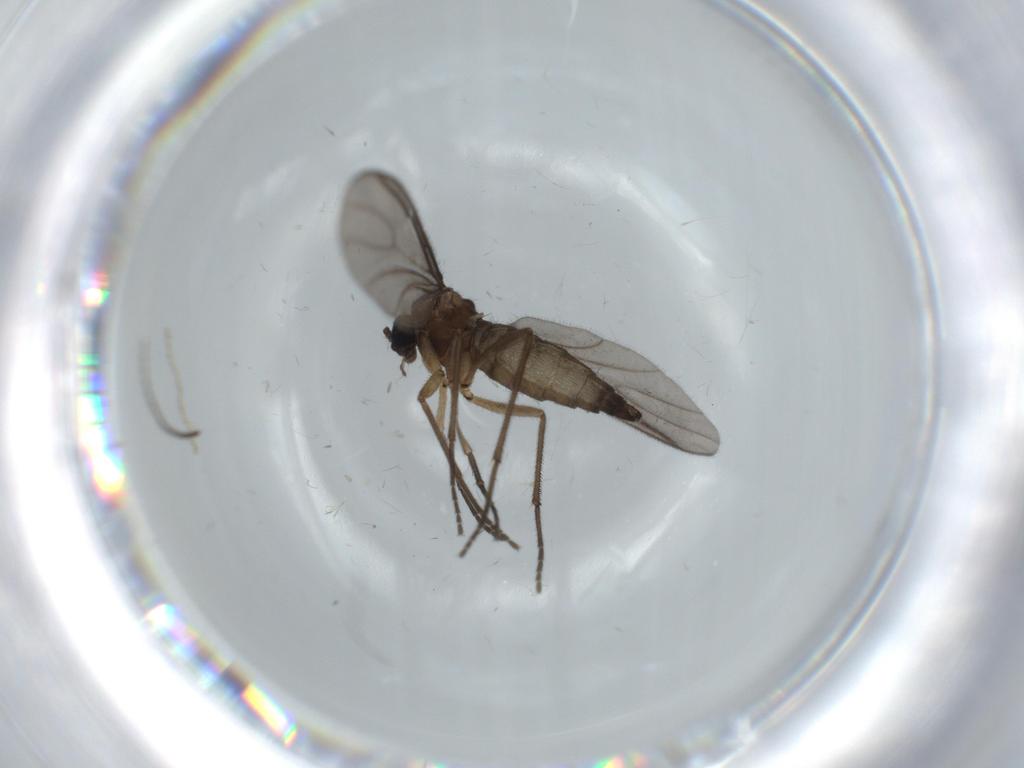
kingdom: Animalia
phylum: Arthropoda
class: Insecta
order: Diptera
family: Sciaridae
